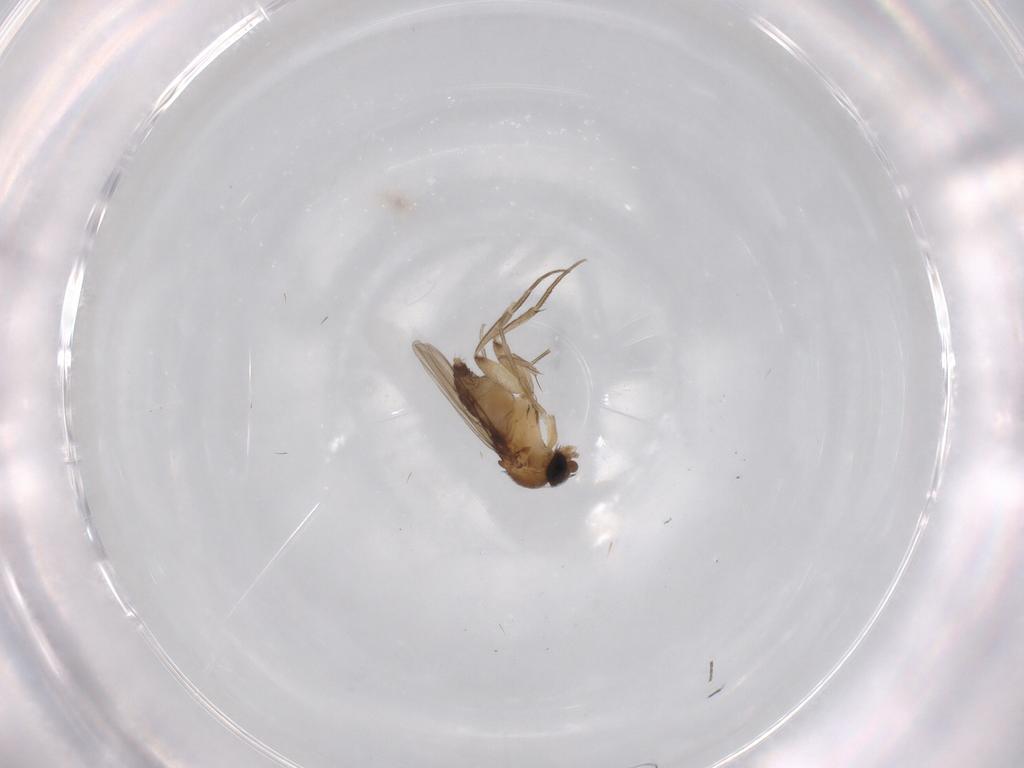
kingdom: Animalia
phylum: Arthropoda
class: Insecta
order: Diptera
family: Phoridae
